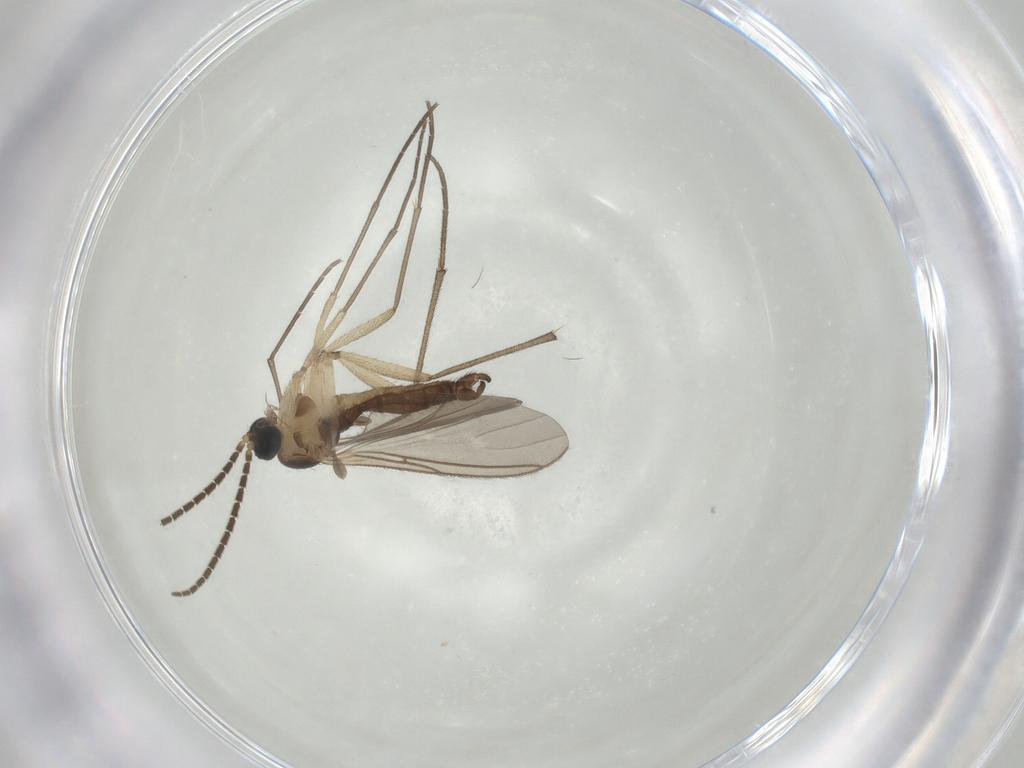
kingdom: Animalia
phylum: Arthropoda
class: Insecta
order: Diptera
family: Sciaridae
